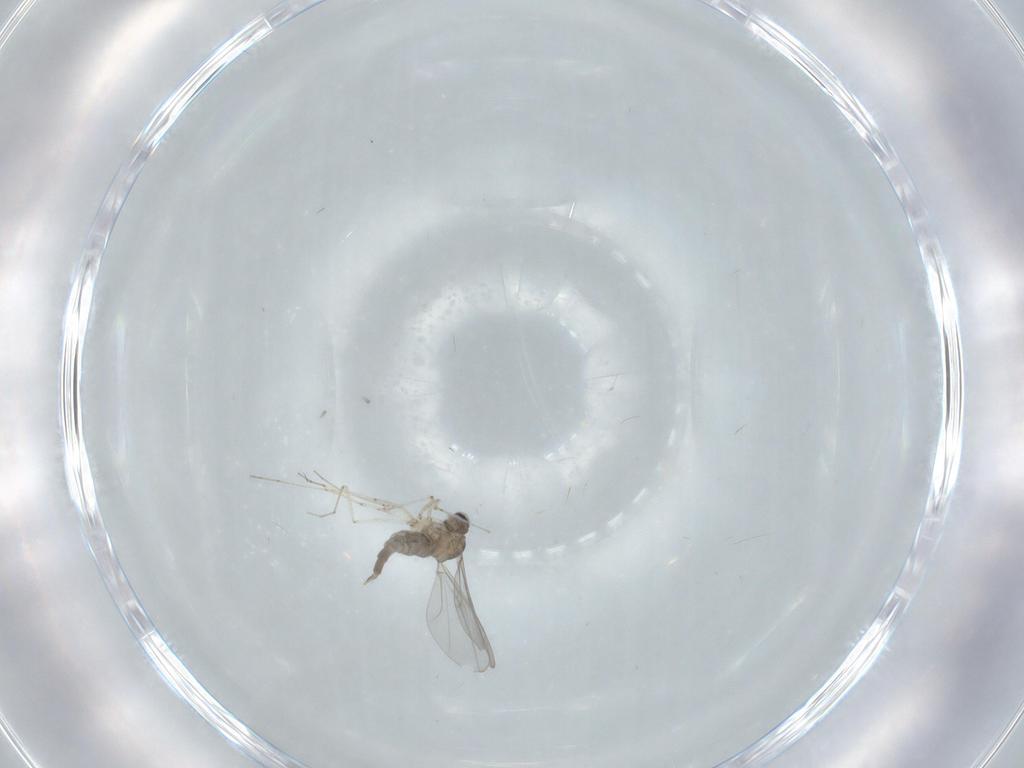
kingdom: Animalia
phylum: Arthropoda
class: Insecta
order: Diptera
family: Cecidomyiidae
